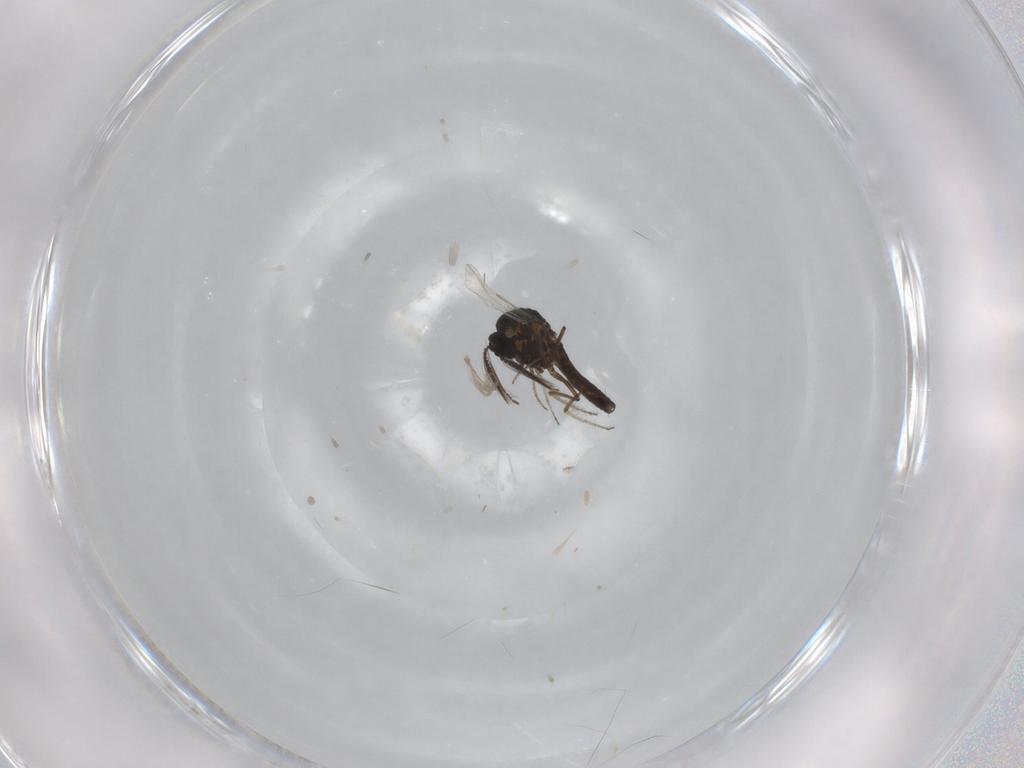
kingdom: Animalia
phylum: Arthropoda
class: Insecta
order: Diptera
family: Ceratopogonidae
